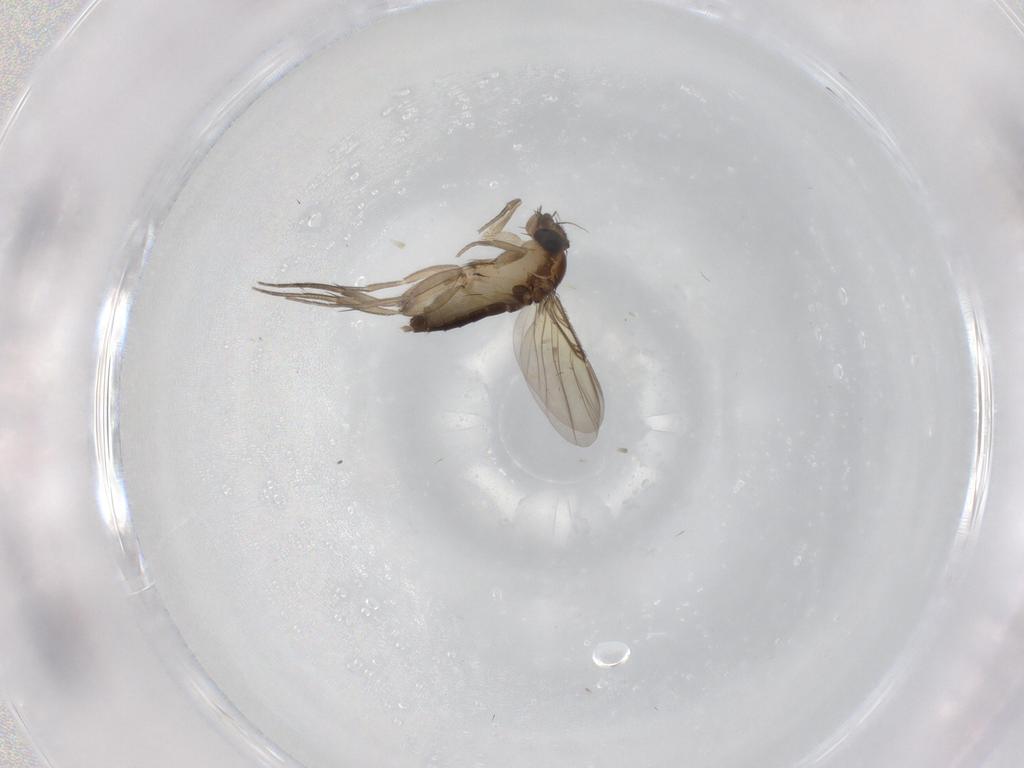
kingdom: Animalia
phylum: Arthropoda
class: Insecta
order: Diptera
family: Phoridae
